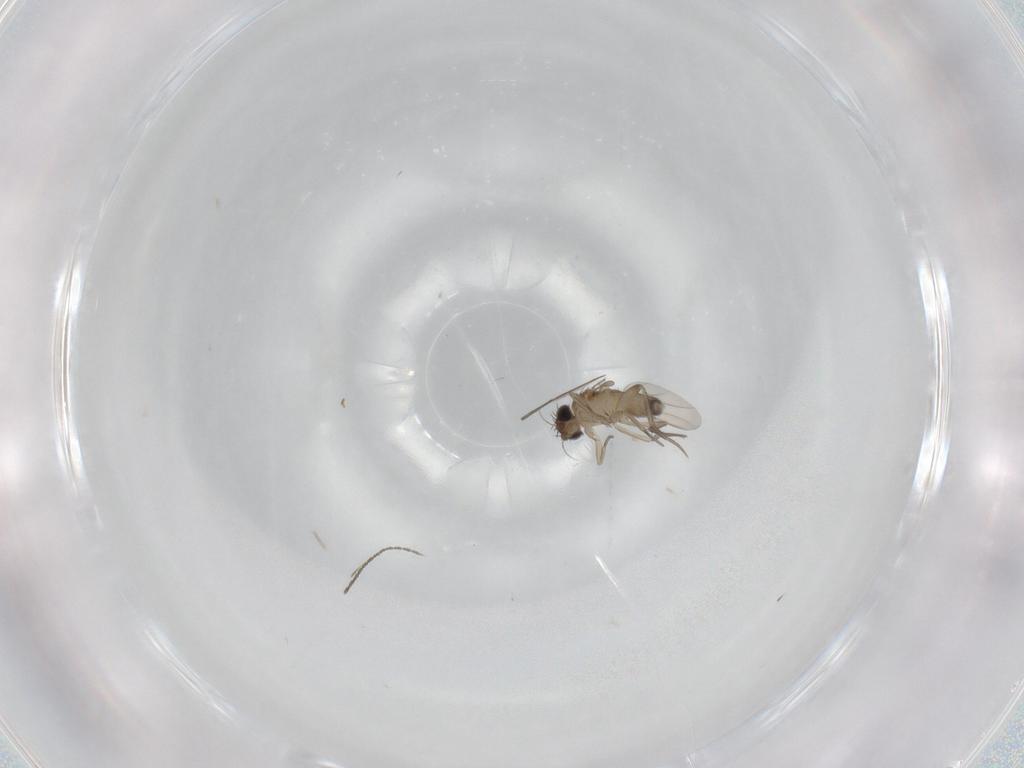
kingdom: Animalia
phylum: Arthropoda
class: Insecta
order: Diptera
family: Phoridae
